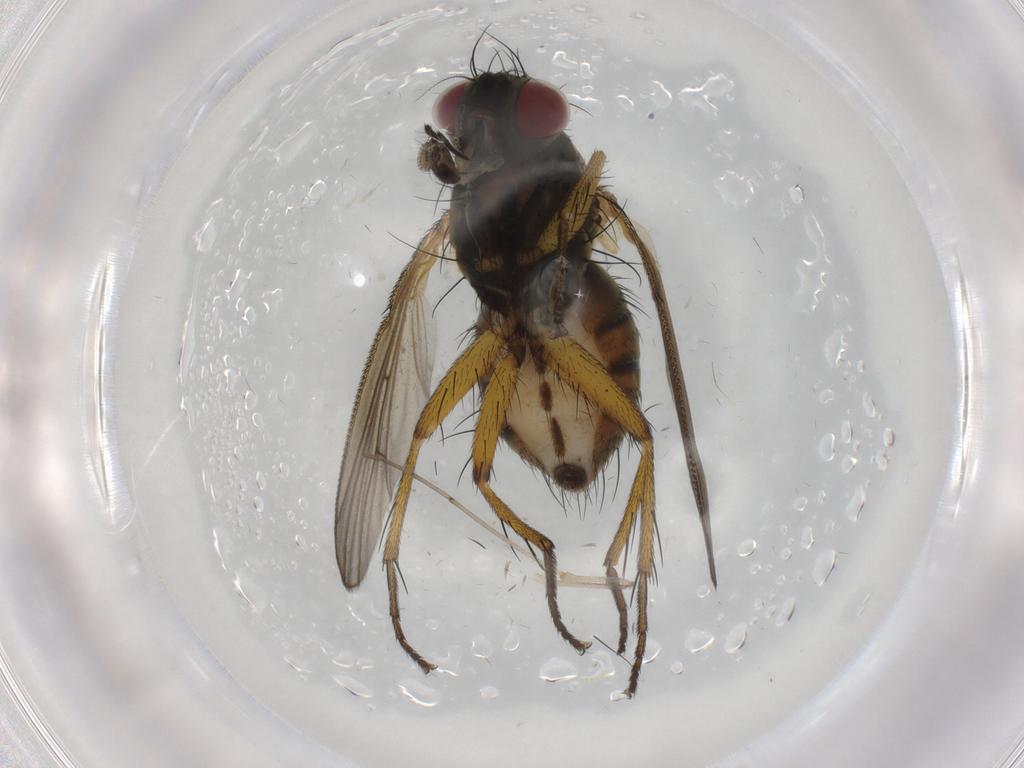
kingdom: Animalia
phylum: Arthropoda
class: Insecta
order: Diptera
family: Muscidae
